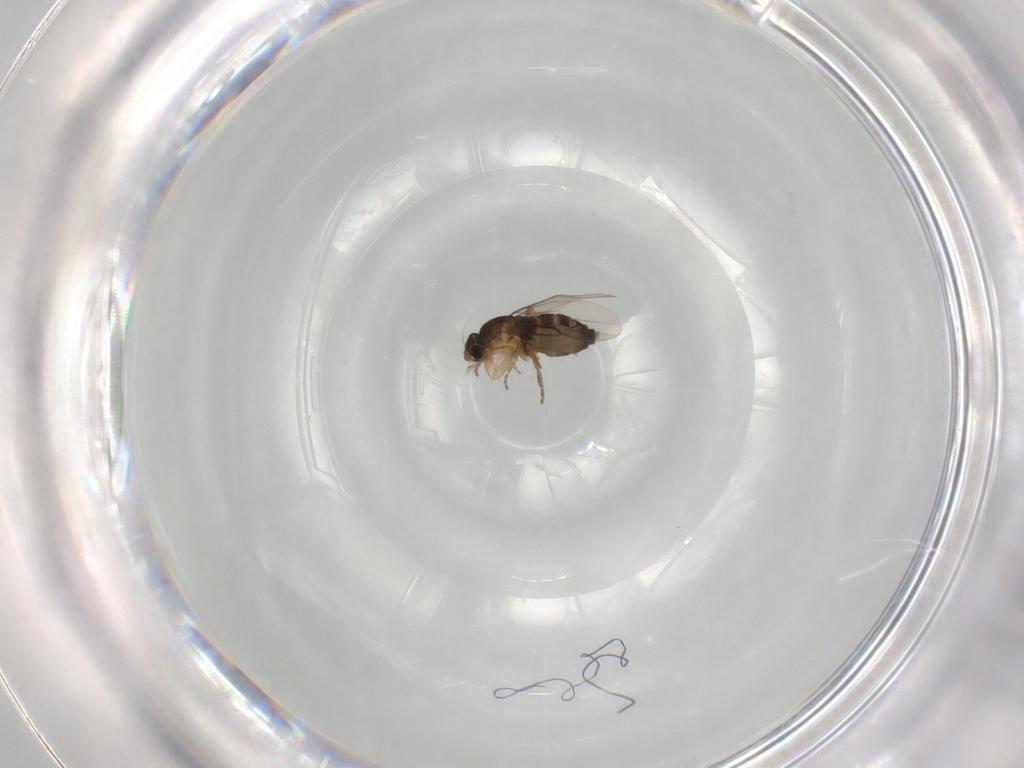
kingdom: Animalia
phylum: Arthropoda
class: Insecta
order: Diptera
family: Phoridae
